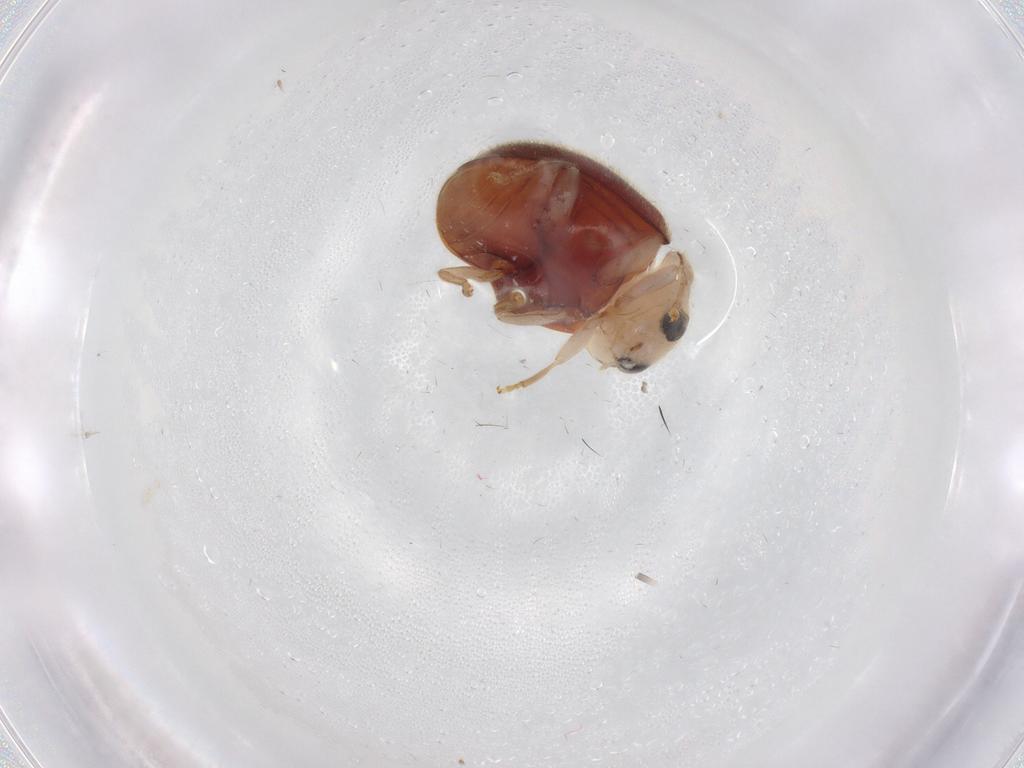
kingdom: Animalia
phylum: Arthropoda
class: Insecta
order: Coleoptera
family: Coccinellidae
